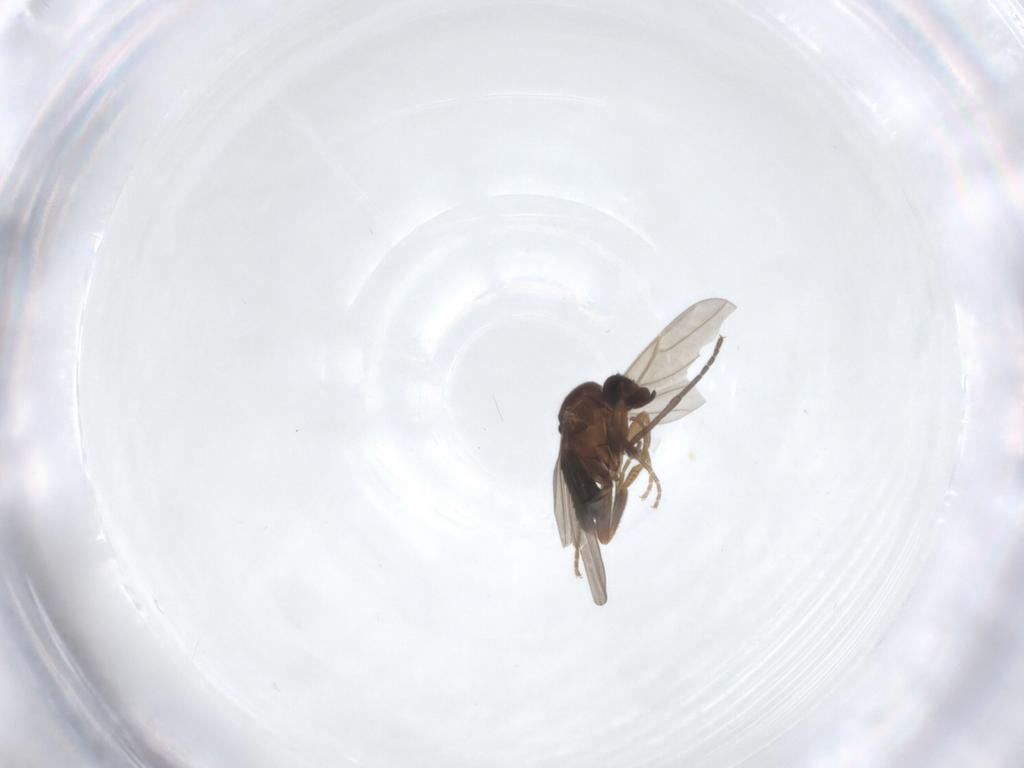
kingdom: Animalia
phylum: Arthropoda
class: Insecta
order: Diptera
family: Sciaridae
